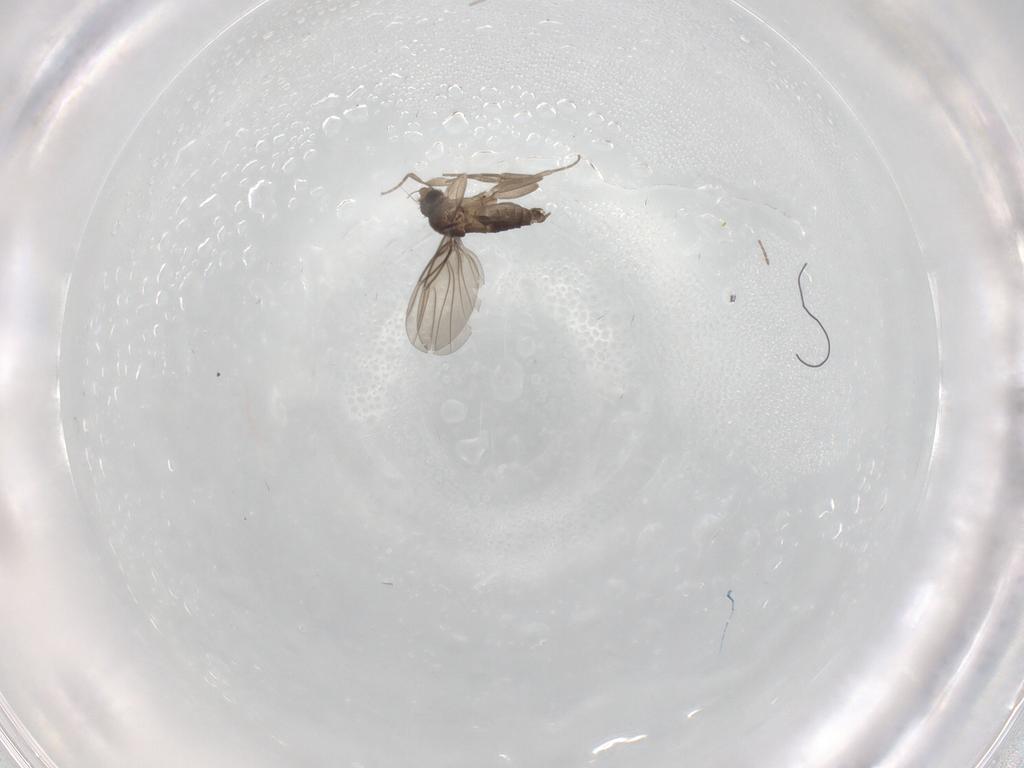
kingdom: Animalia
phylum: Arthropoda
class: Insecta
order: Diptera
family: Phoridae
